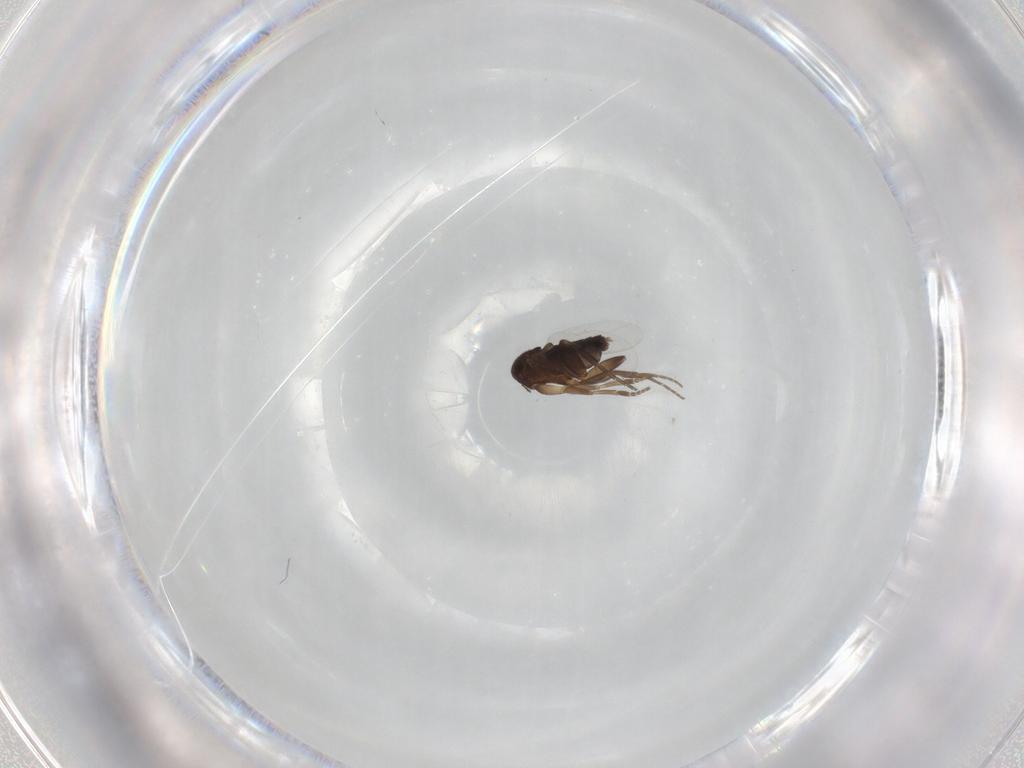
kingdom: Animalia
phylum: Arthropoda
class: Insecta
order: Diptera
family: Phoridae
